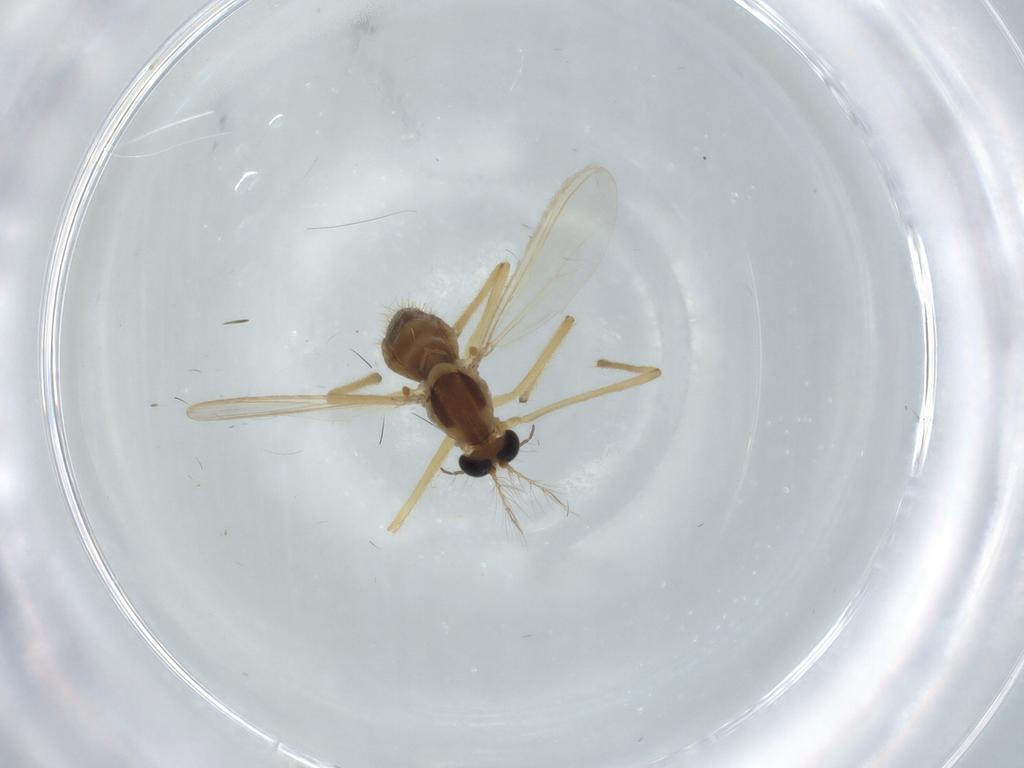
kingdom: Animalia
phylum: Arthropoda
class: Insecta
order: Diptera
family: Chironomidae
